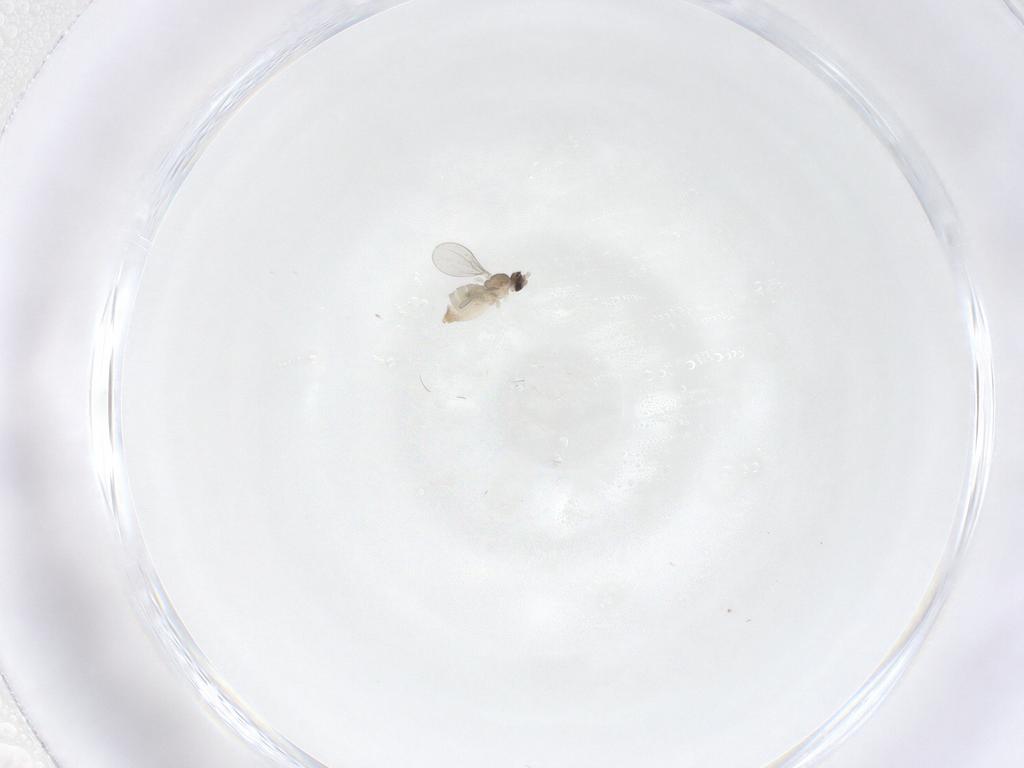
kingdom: Animalia
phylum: Arthropoda
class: Insecta
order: Diptera
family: Cecidomyiidae
